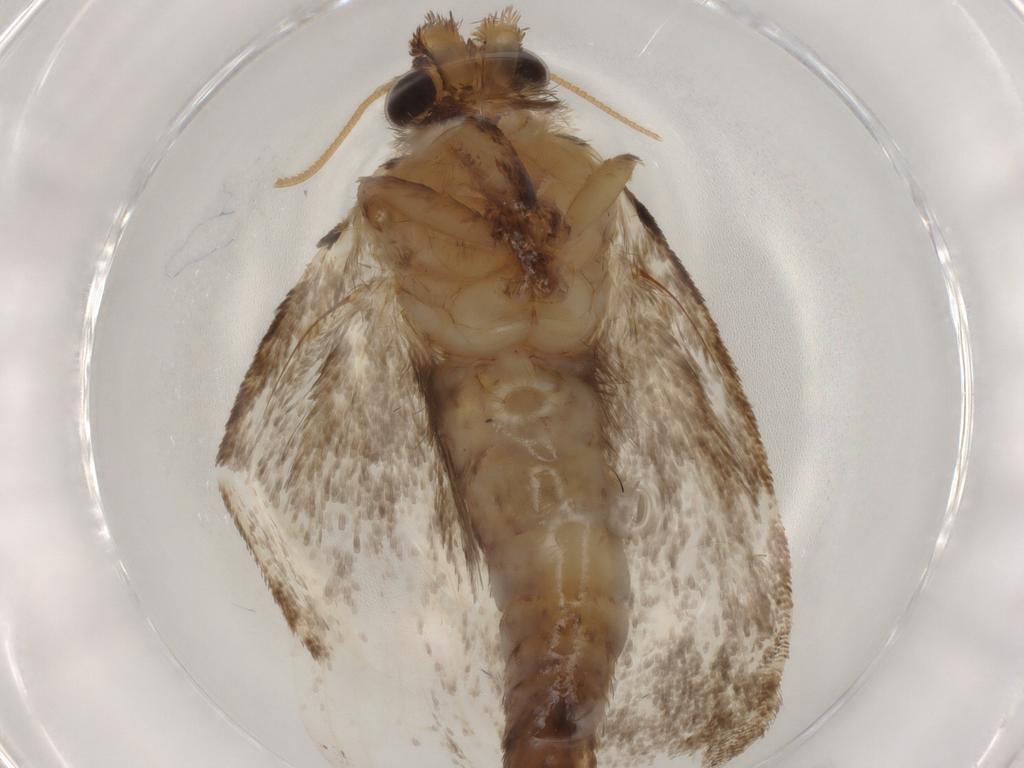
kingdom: Animalia
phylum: Arthropoda
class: Insecta
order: Lepidoptera
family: Tineidae
